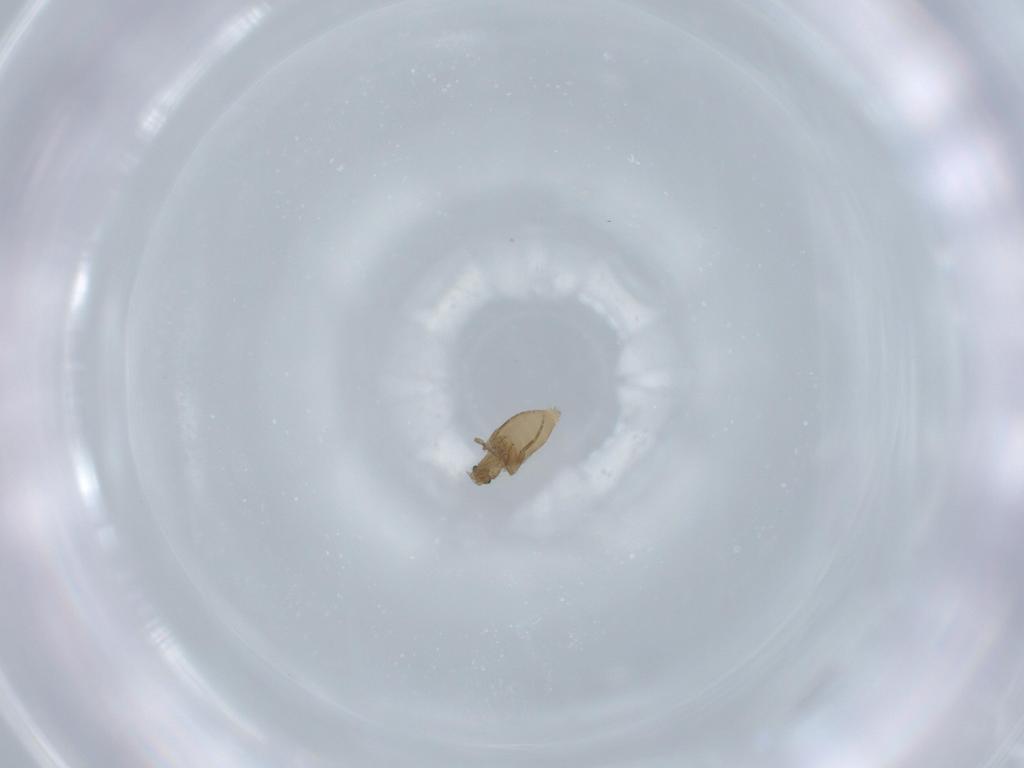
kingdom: Animalia
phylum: Arthropoda
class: Insecta
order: Diptera
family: Phoridae
